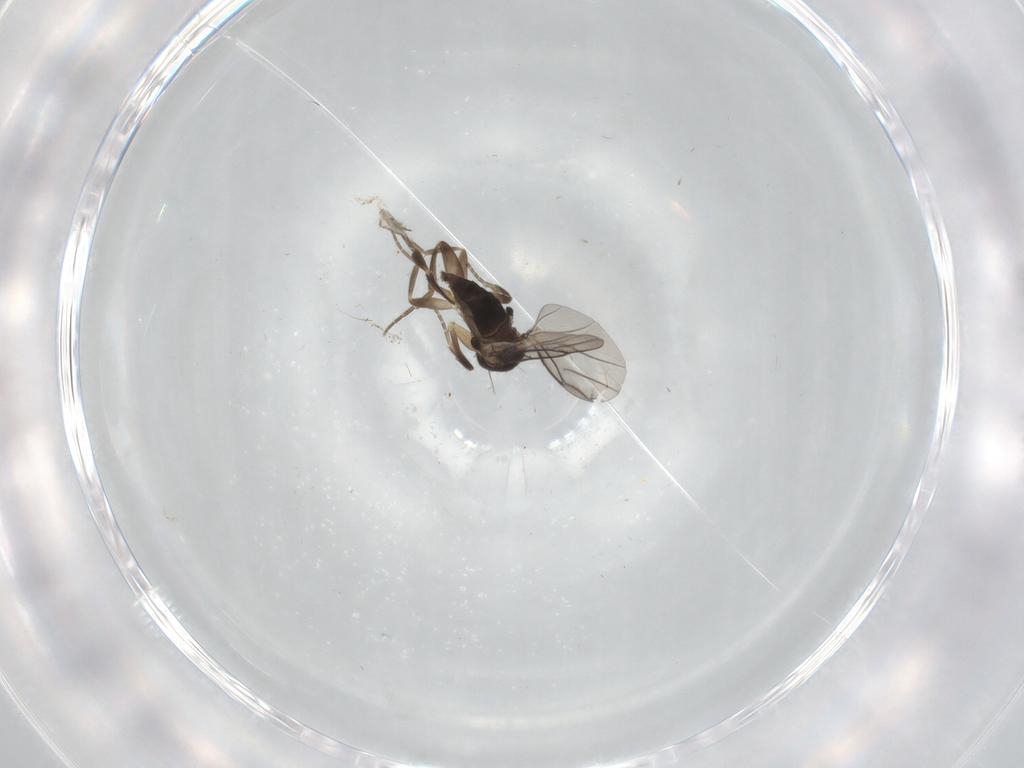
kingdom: Animalia
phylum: Arthropoda
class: Insecta
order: Diptera
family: Phoridae
